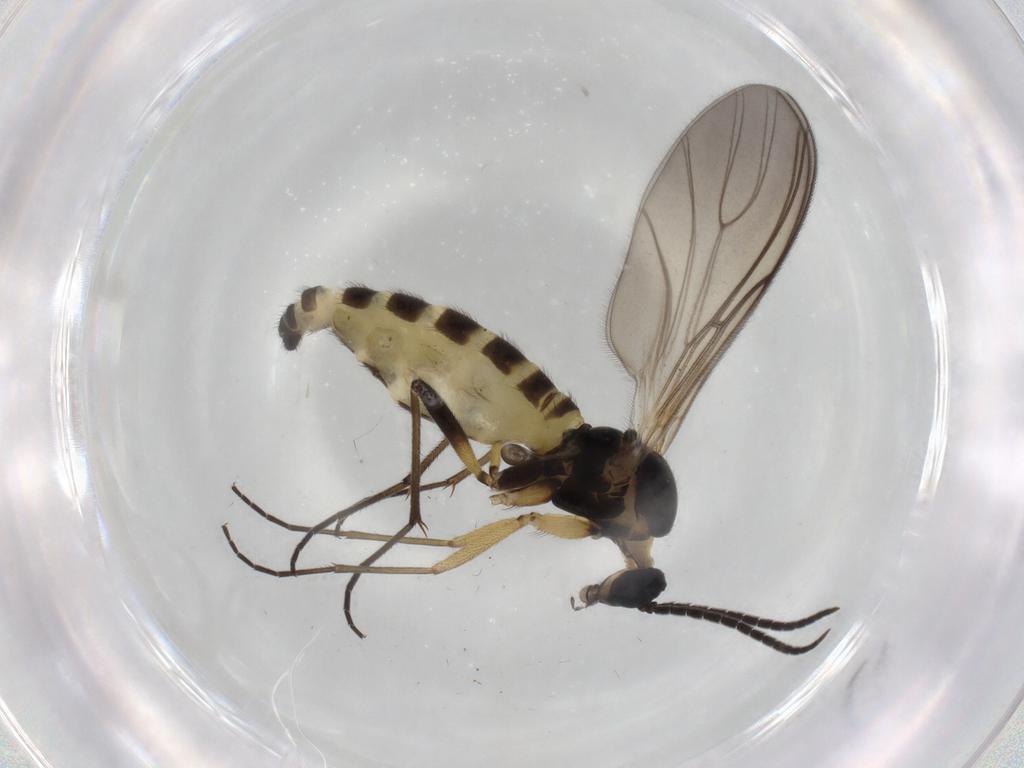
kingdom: Animalia
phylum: Arthropoda
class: Insecta
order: Diptera
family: Sciaridae
